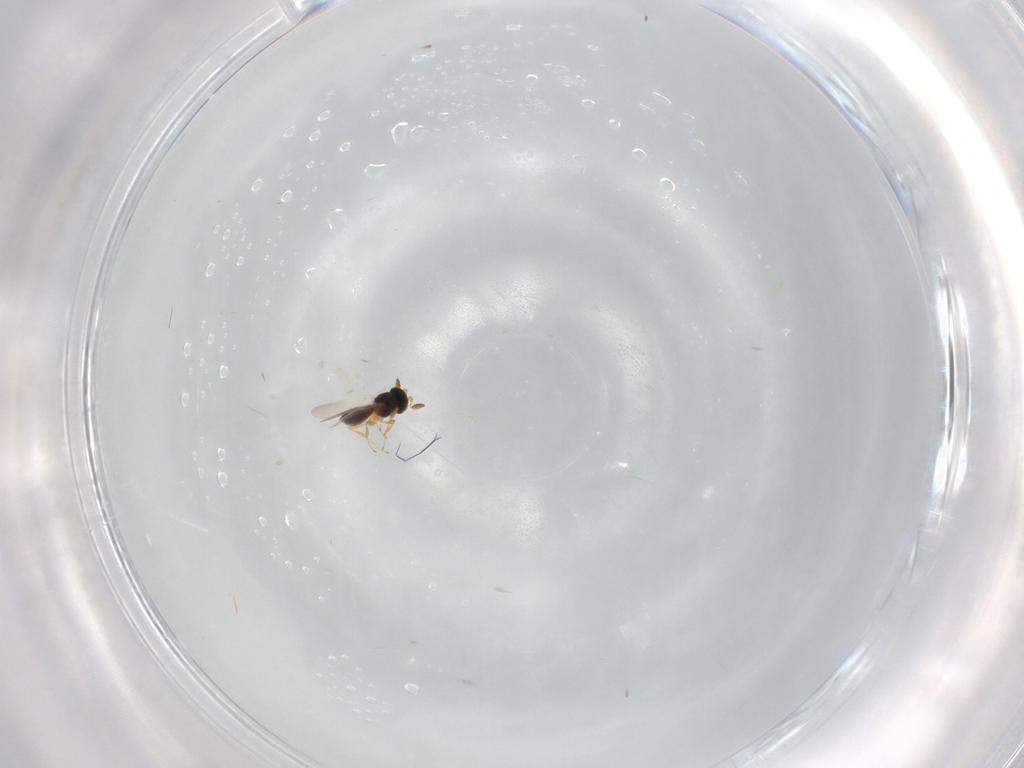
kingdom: Animalia
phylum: Arthropoda
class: Insecta
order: Hymenoptera
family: Platygastridae
